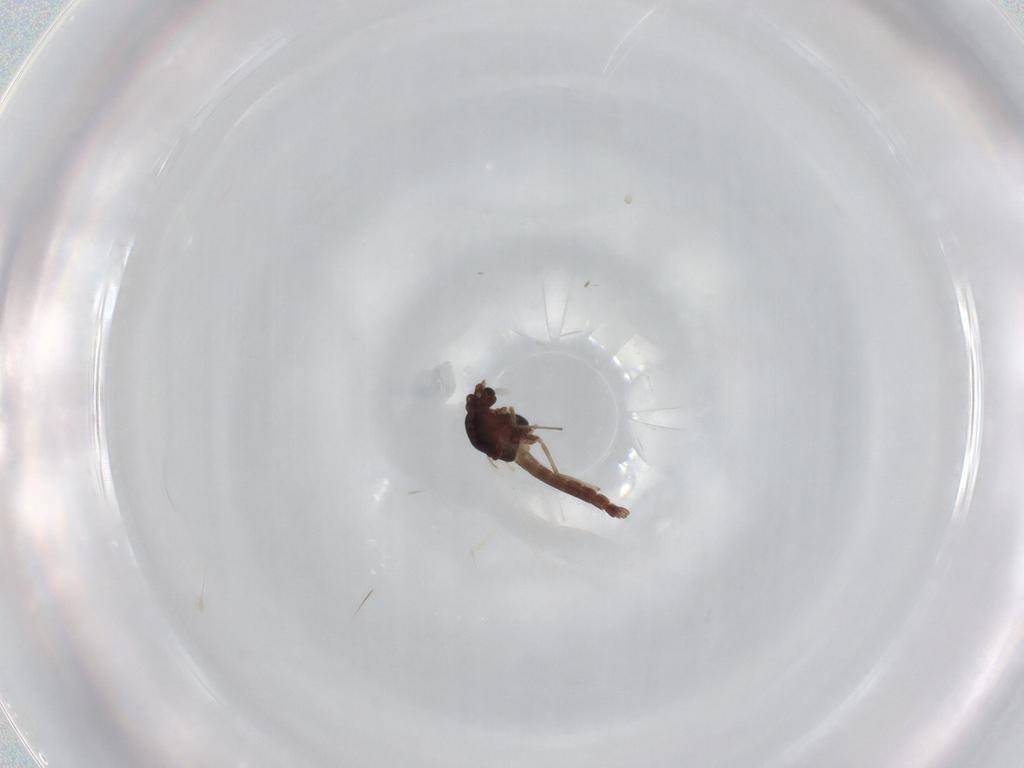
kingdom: Animalia
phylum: Arthropoda
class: Insecta
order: Diptera
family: Chironomidae
